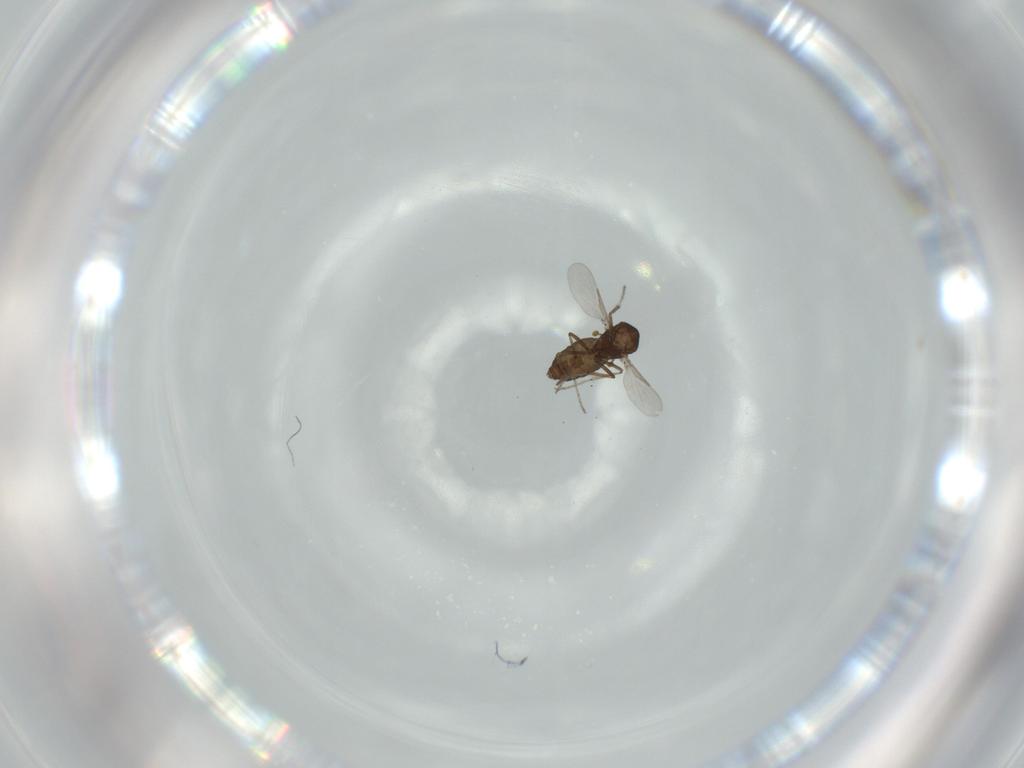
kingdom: Animalia
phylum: Arthropoda
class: Insecta
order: Diptera
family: Ceratopogonidae
